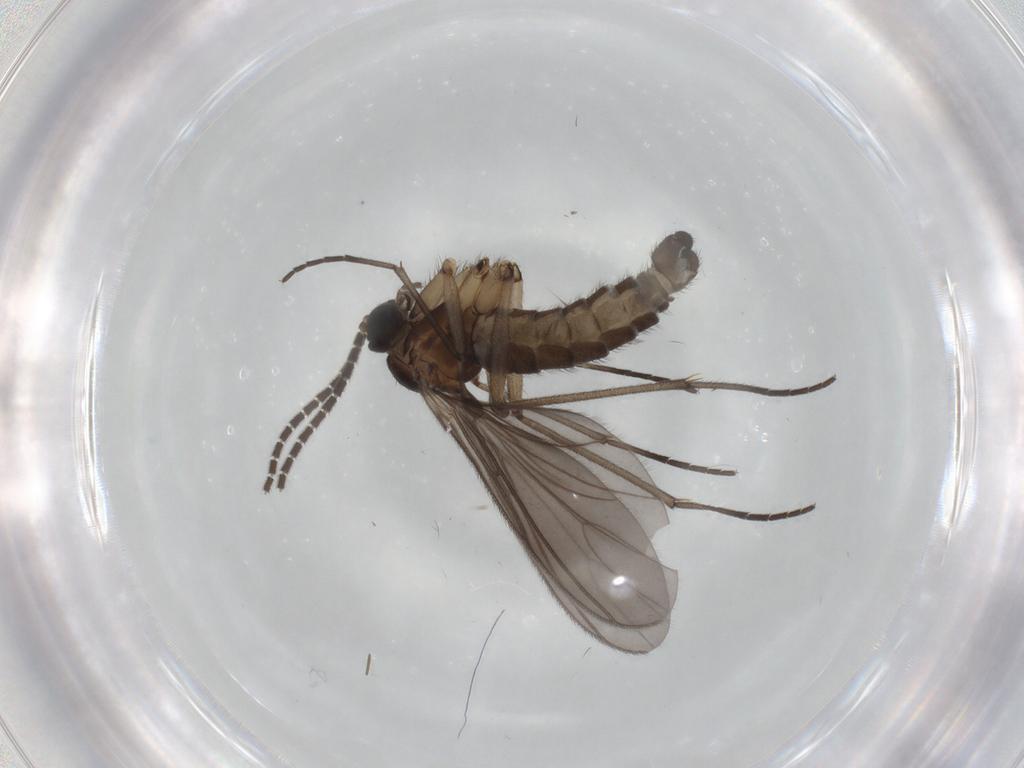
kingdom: Animalia
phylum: Arthropoda
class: Insecta
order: Diptera
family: Sciaridae
